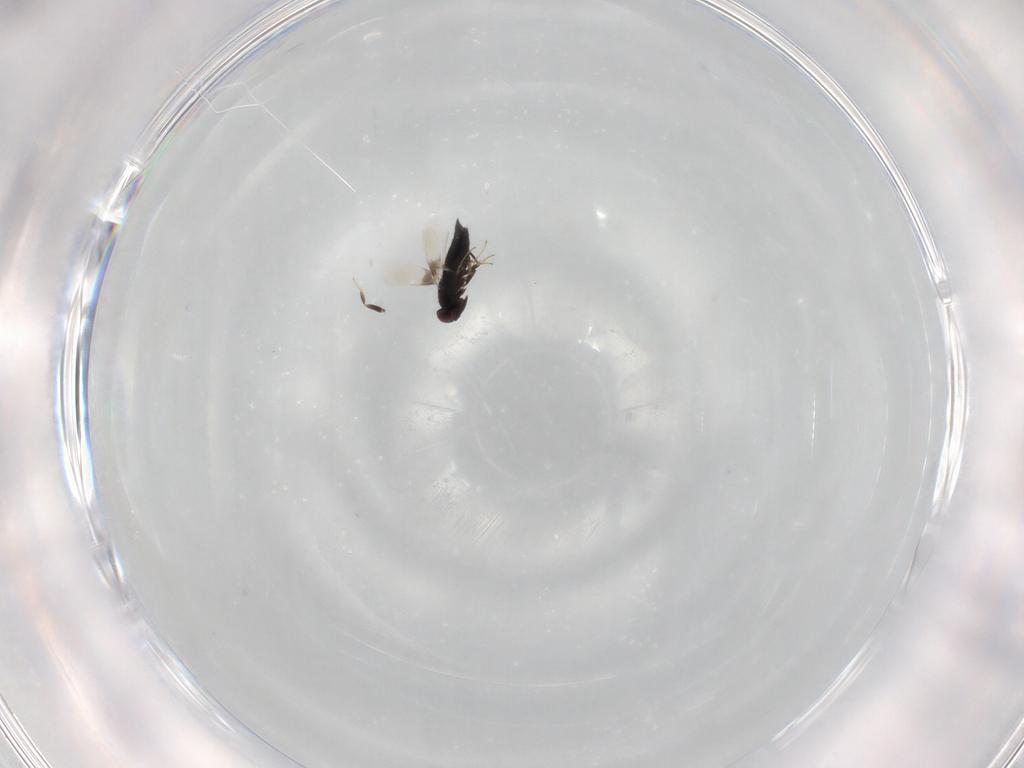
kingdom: Animalia
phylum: Arthropoda
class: Insecta
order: Hymenoptera
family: Signiphoridae
